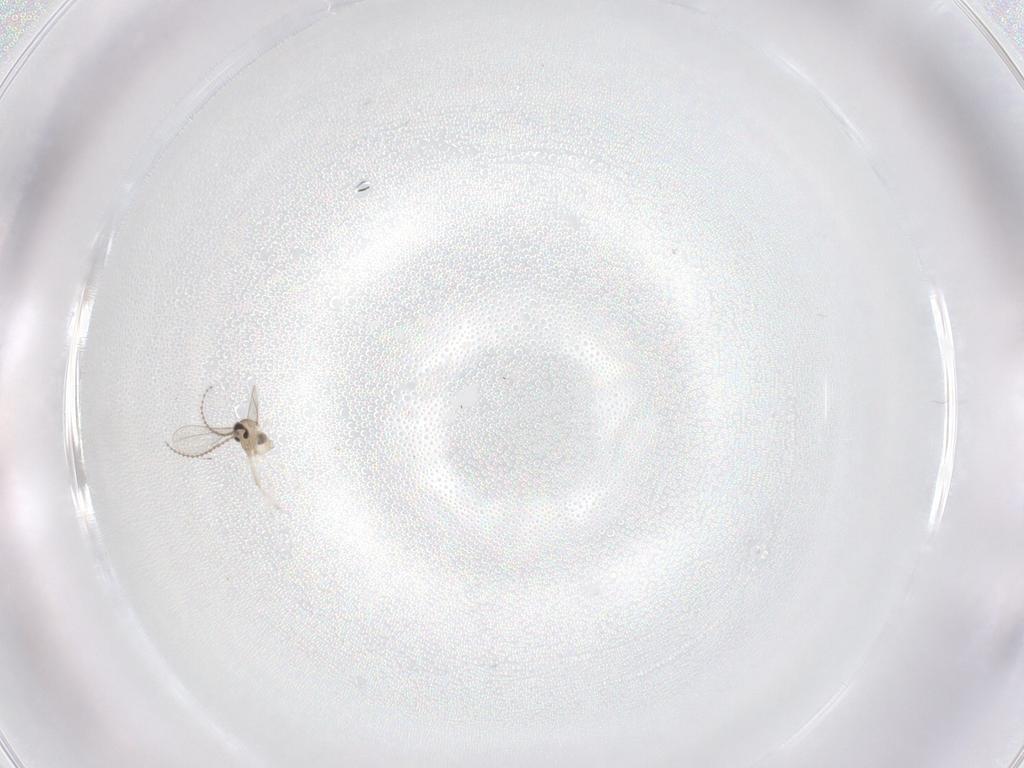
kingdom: Animalia
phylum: Arthropoda
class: Insecta
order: Diptera
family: Cecidomyiidae
